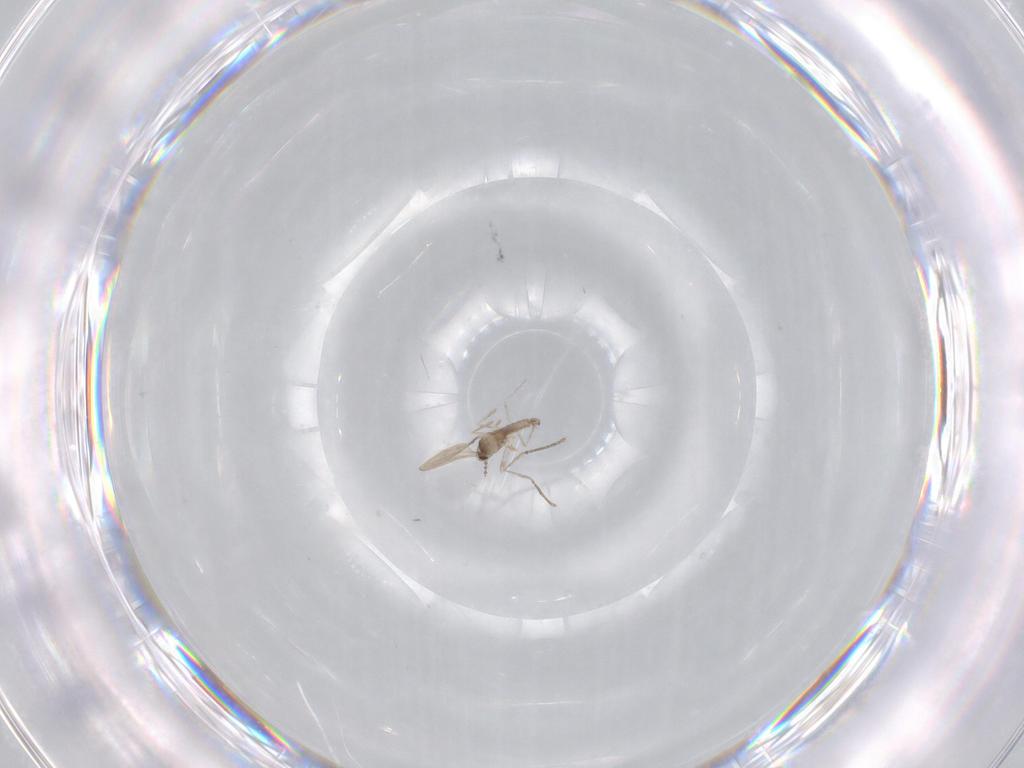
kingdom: Animalia
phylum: Arthropoda
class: Insecta
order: Diptera
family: Cecidomyiidae
